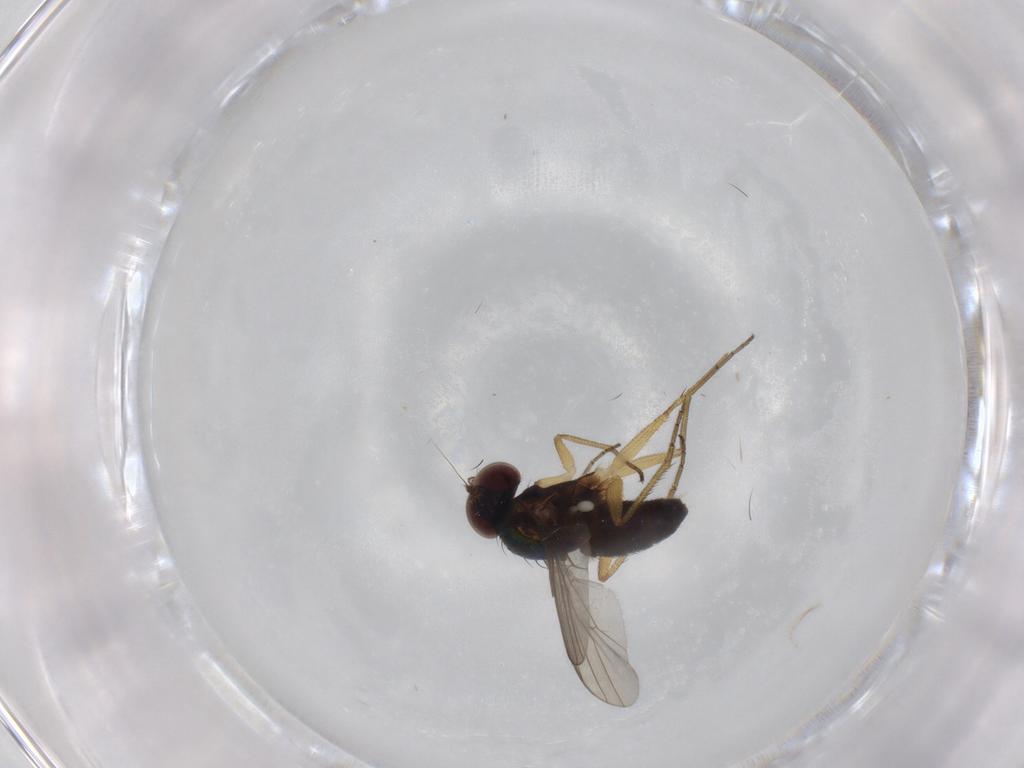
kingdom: Animalia
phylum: Arthropoda
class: Insecta
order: Diptera
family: Dolichopodidae
